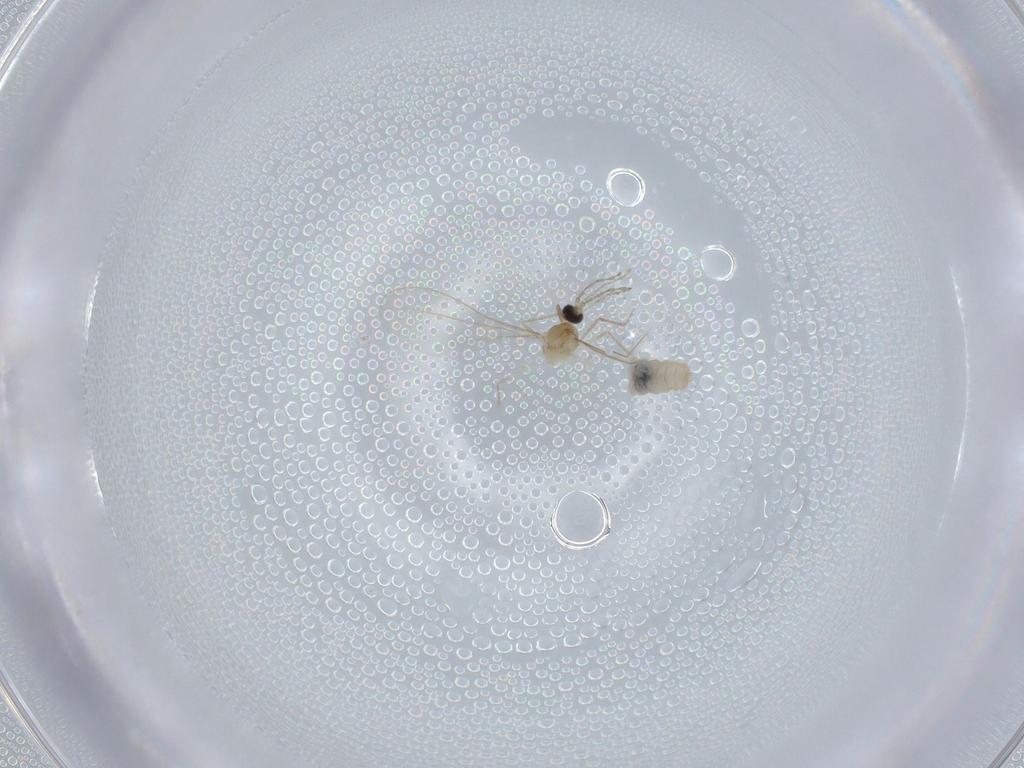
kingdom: Animalia
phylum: Arthropoda
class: Insecta
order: Diptera
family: Cecidomyiidae
